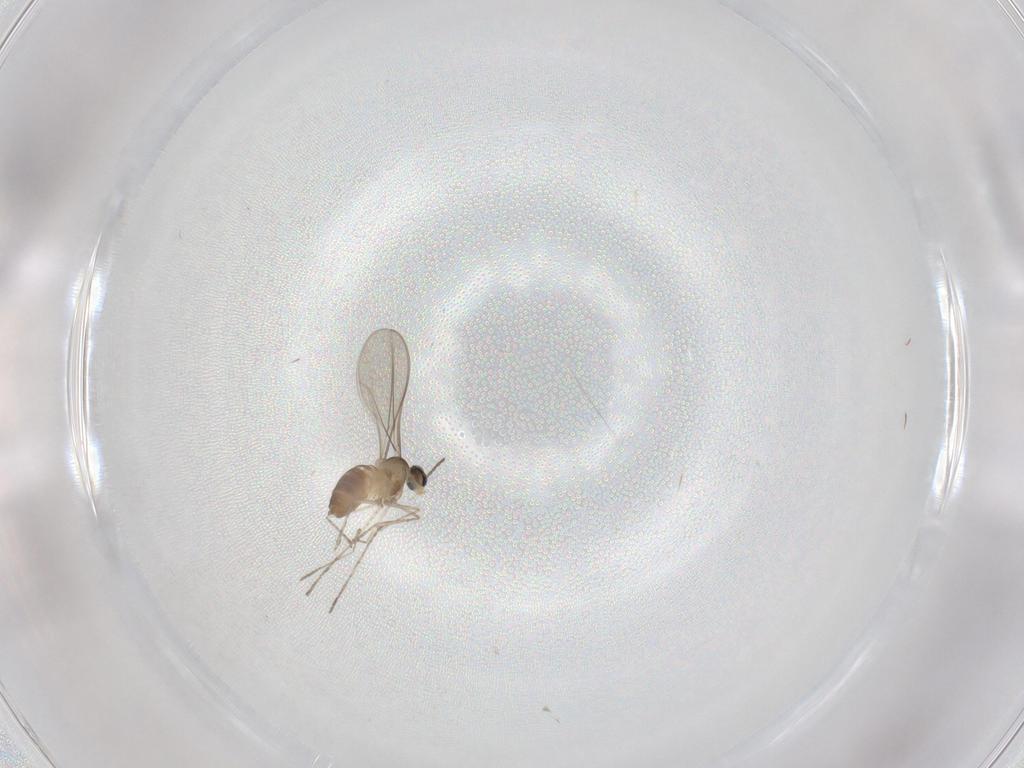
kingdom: Animalia
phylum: Arthropoda
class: Insecta
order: Diptera
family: Cecidomyiidae
